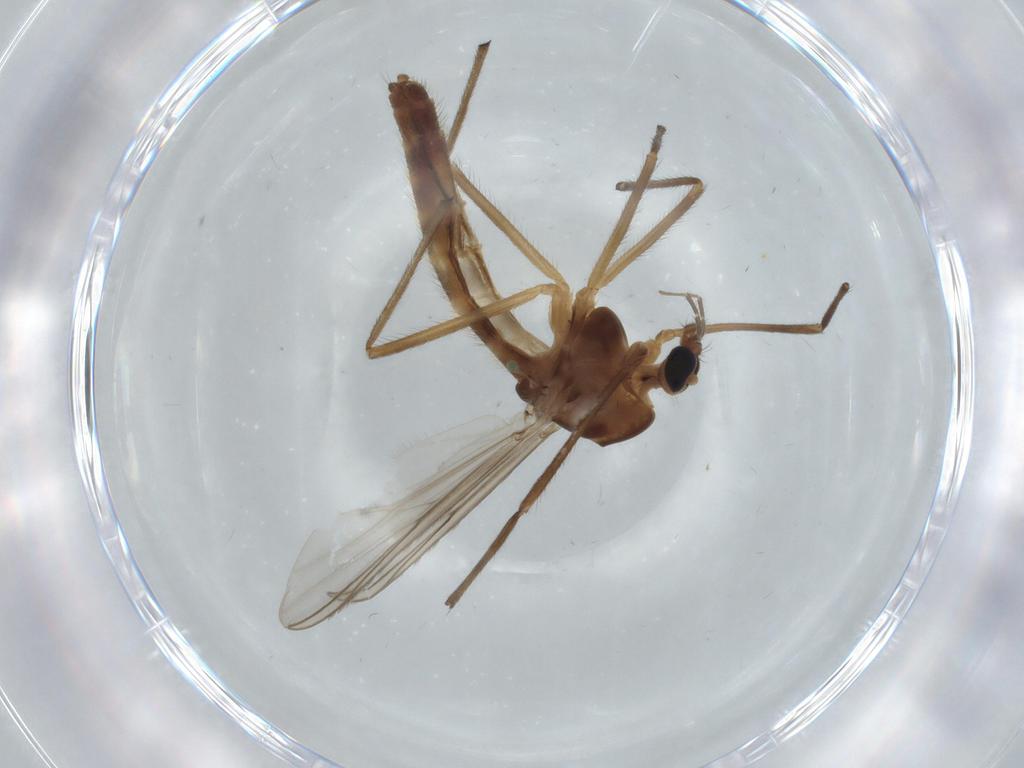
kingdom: Animalia
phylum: Arthropoda
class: Insecta
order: Diptera
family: Chironomidae
